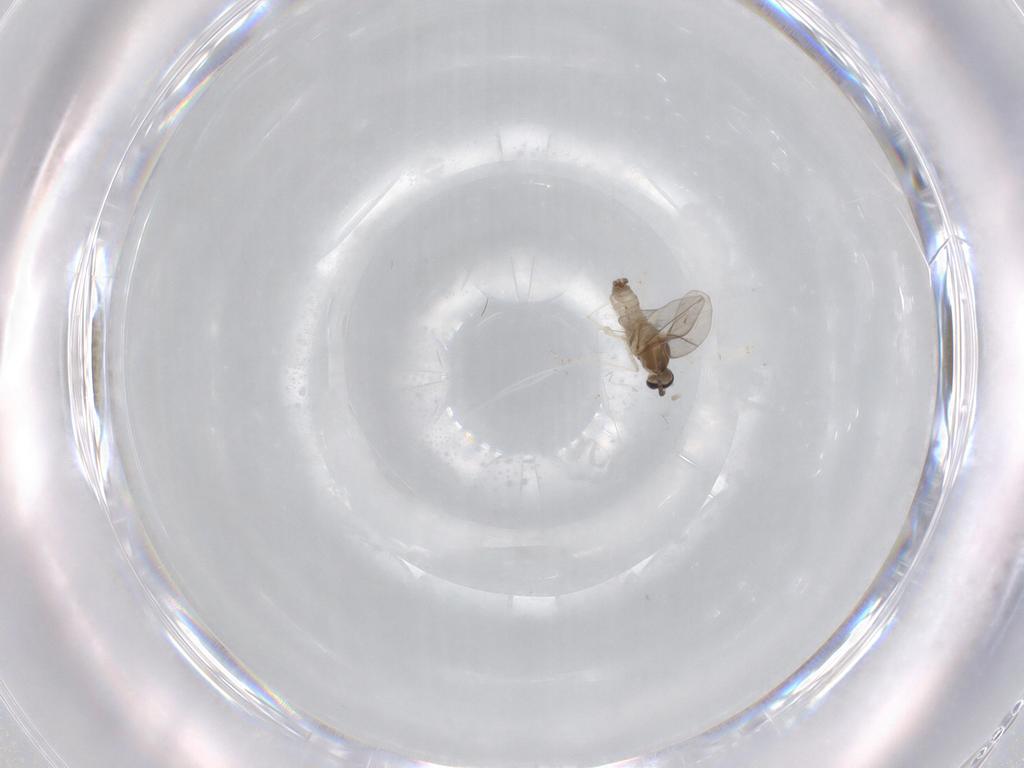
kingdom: Animalia
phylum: Arthropoda
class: Insecta
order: Diptera
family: Cecidomyiidae
